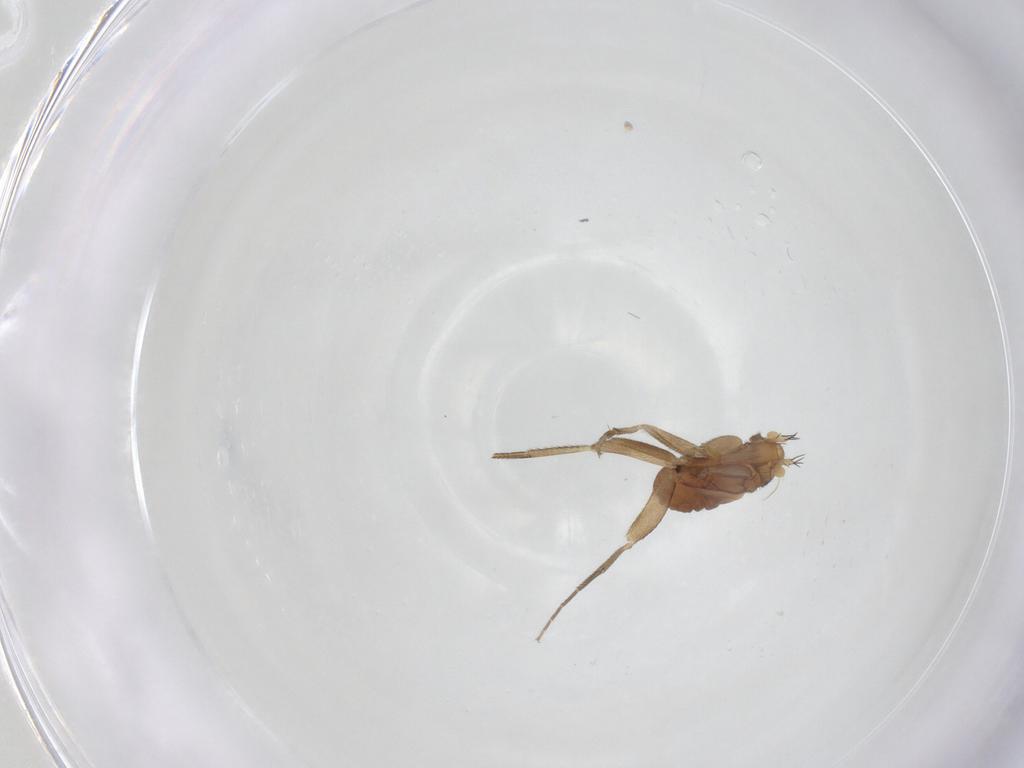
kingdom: Animalia
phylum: Arthropoda
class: Insecta
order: Diptera
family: Phoridae
